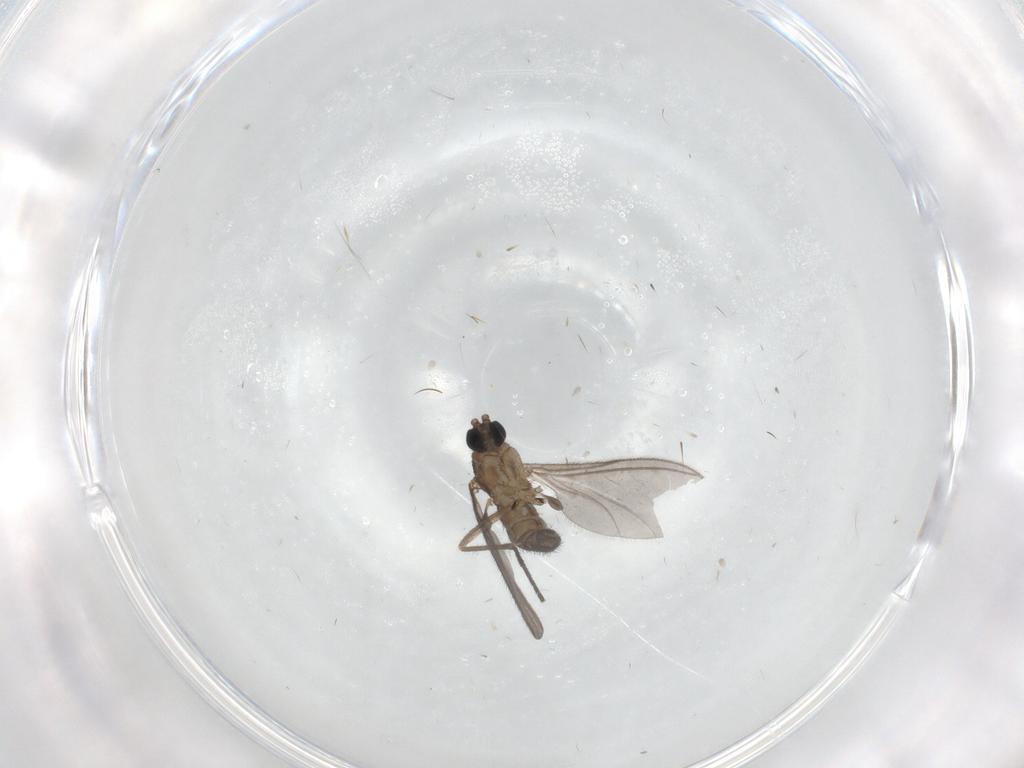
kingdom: Animalia
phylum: Arthropoda
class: Insecta
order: Diptera
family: Sciaridae
